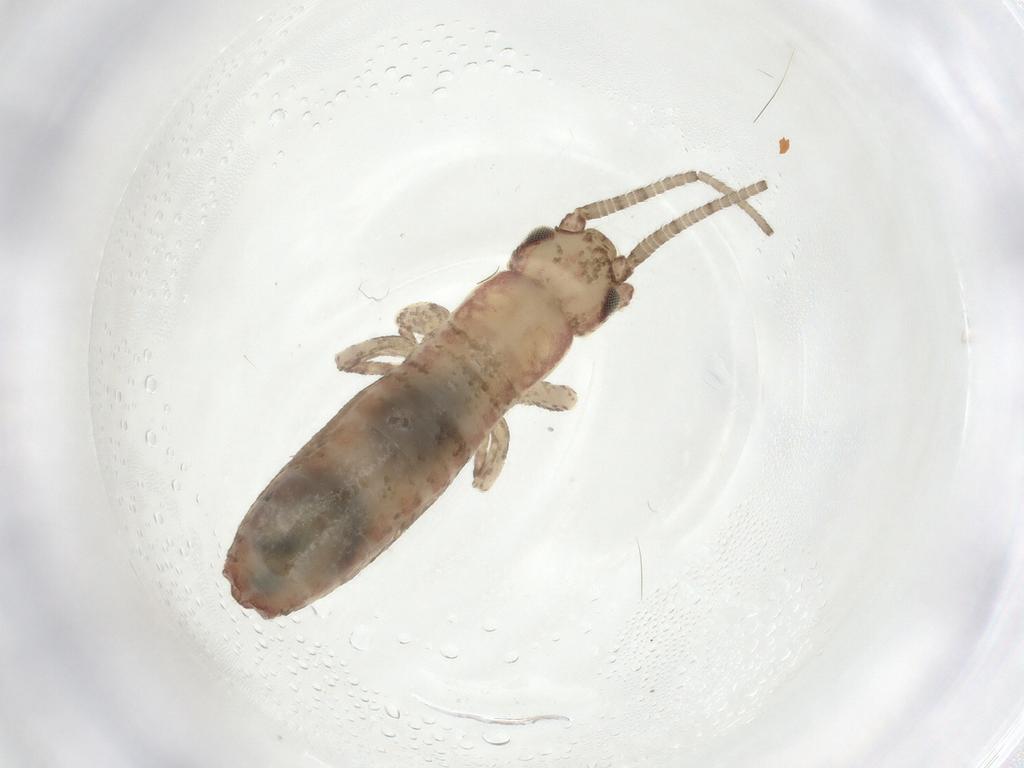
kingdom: Animalia
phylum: Arthropoda
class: Insecta
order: Orthoptera
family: Mogoplistidae
